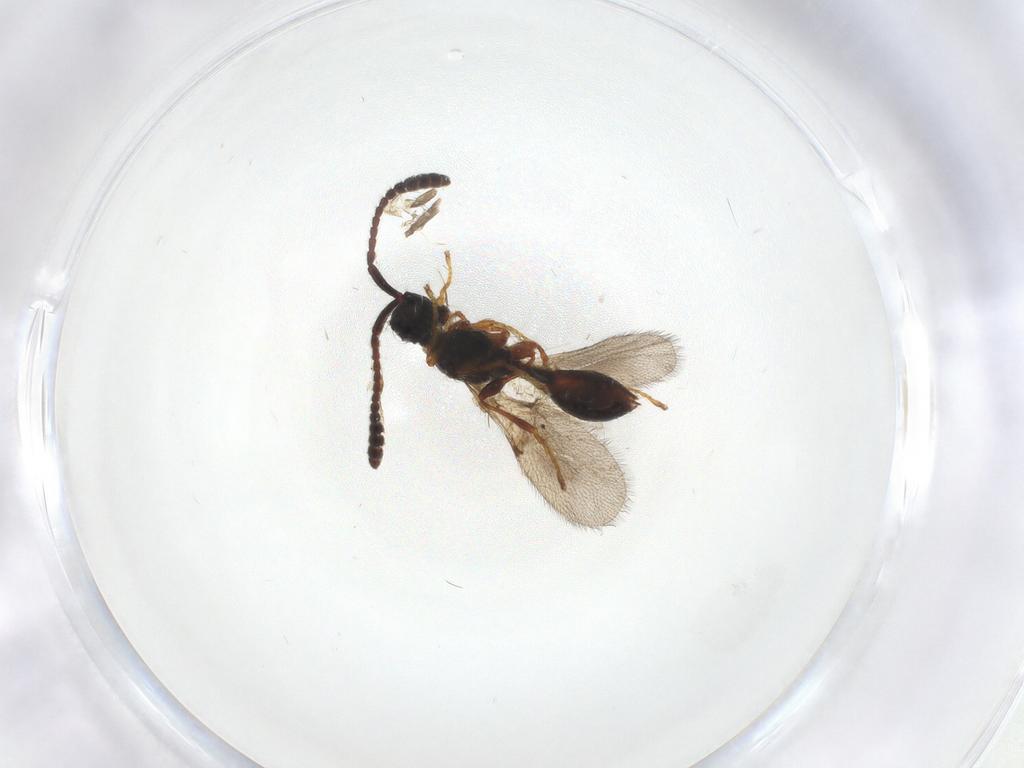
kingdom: Animalia
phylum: Arthropoda
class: Insecta
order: Hymenoptera
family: Diapriidae
